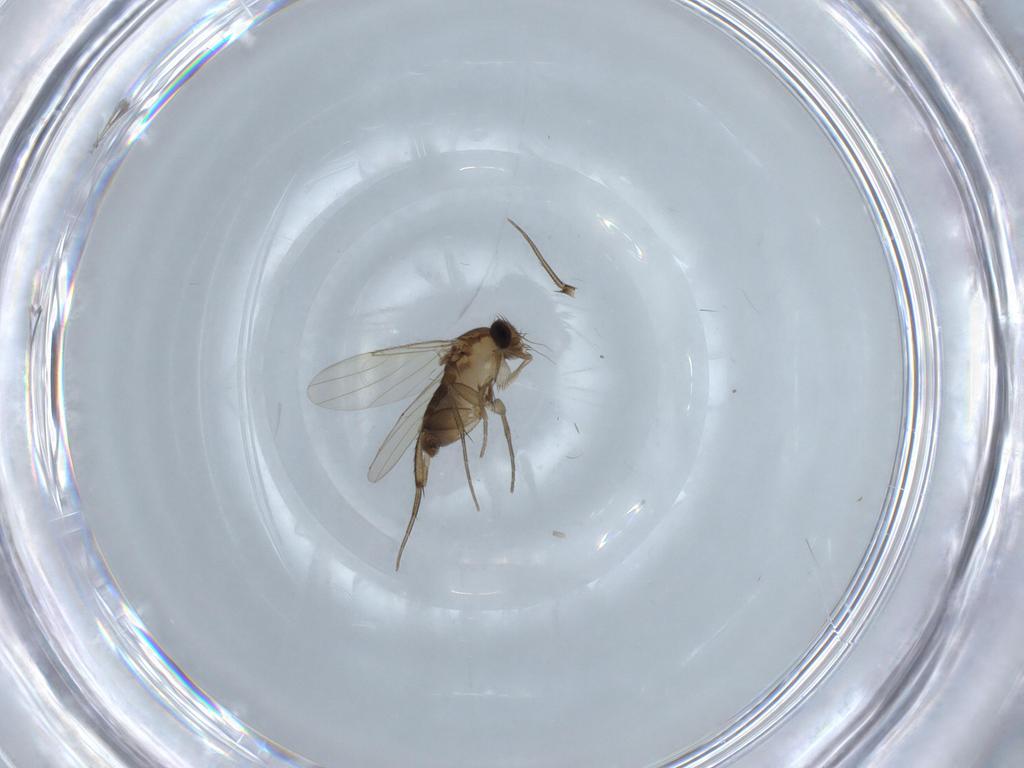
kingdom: Animalia
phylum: Arthropoda
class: Insecta
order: Diptera
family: Phoridae
